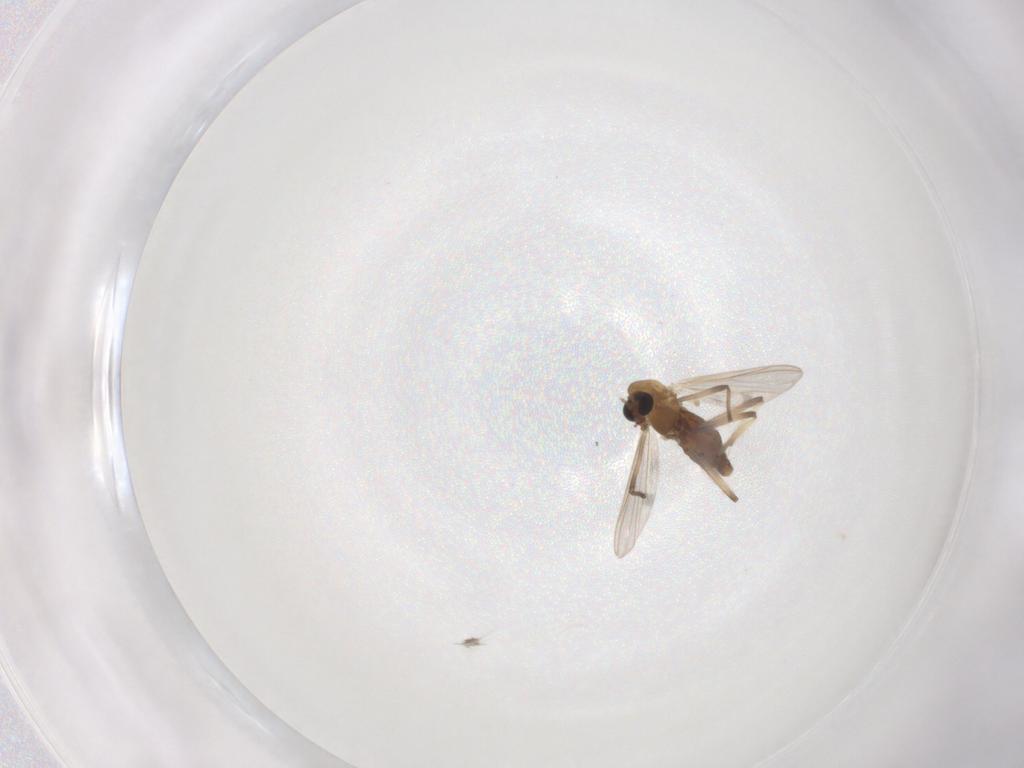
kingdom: Animalia
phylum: Arthropoda
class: Insecta
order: Diptera
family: Chironomidae
